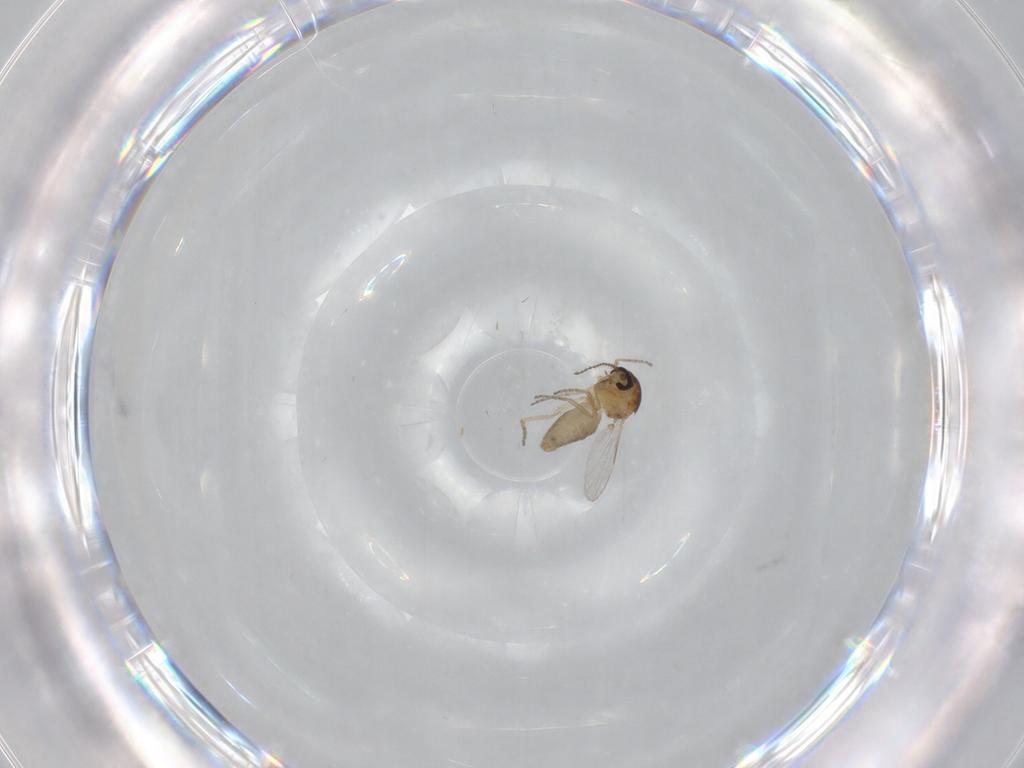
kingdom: Animalia
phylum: Arthropoda
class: Insecta
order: Diptera
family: Ceratopogonidae
